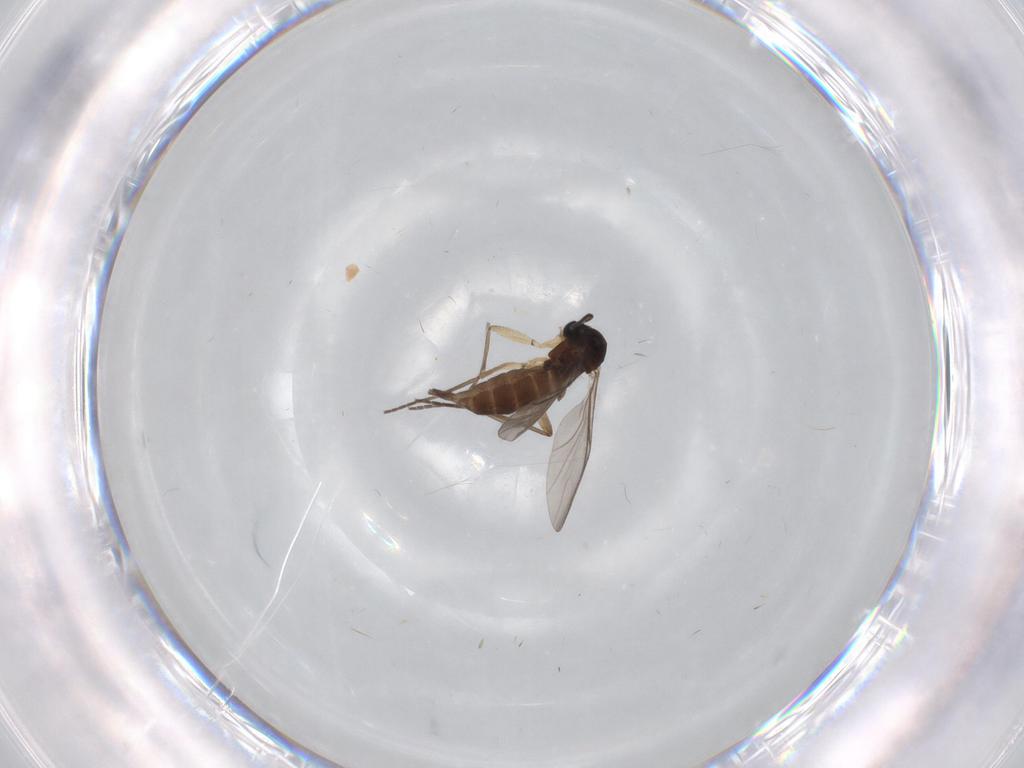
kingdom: Animalia
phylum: Arthropoda
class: Insecta
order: Diptera
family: Sciaridae
